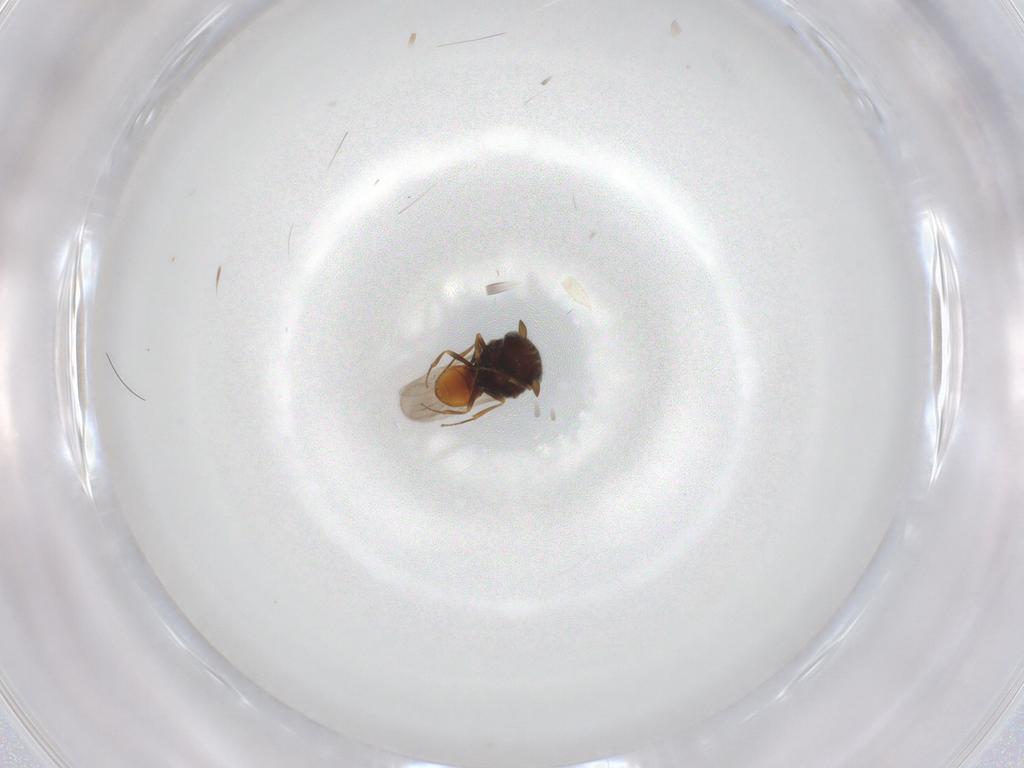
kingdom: Animalia
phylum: Arthropoda
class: Insecta
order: Hymenoptera
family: Scelionidae
